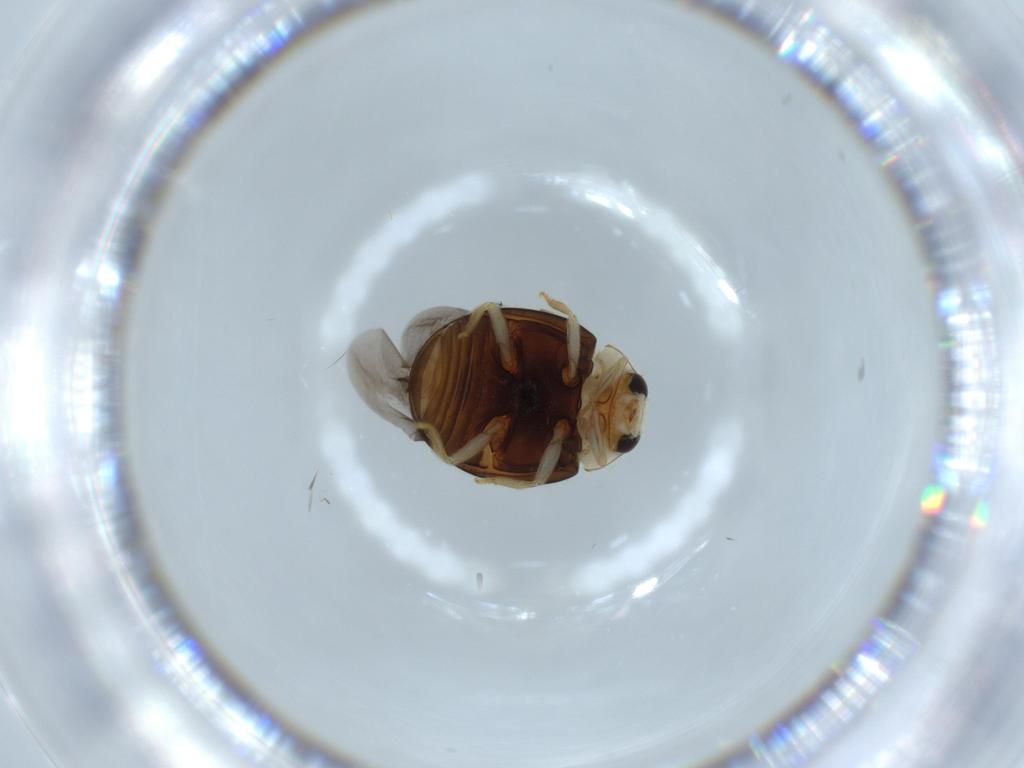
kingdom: Animalia
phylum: Arthropoda
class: Insecta
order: Coleoptera
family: Coccinellidae
